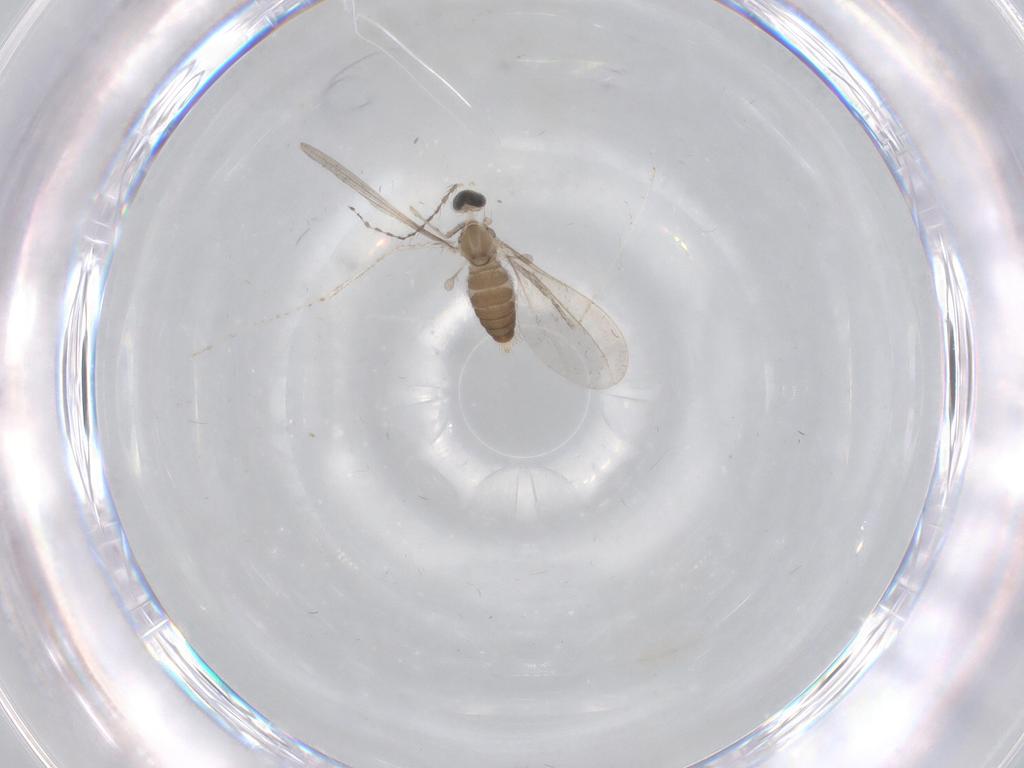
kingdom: Animalia
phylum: Arthropoda
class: Insecta
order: Diptera
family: Cecidomyiidae
